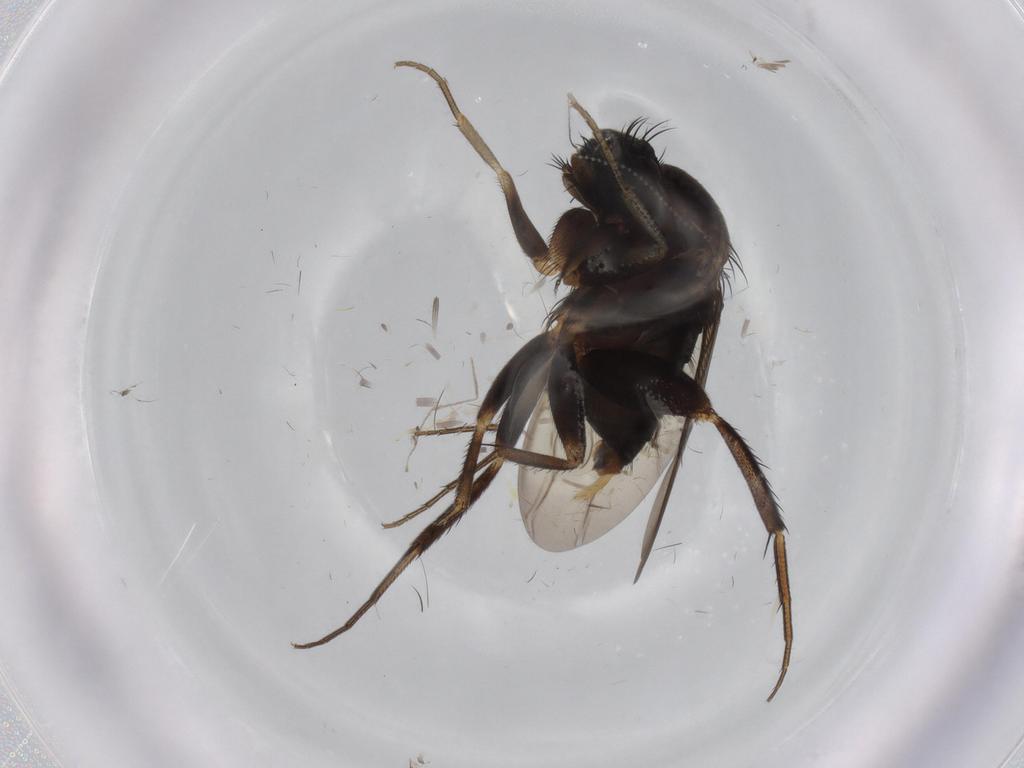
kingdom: Animalia
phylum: Arthropoda
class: Insecta
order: Diptera
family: Phoridae
